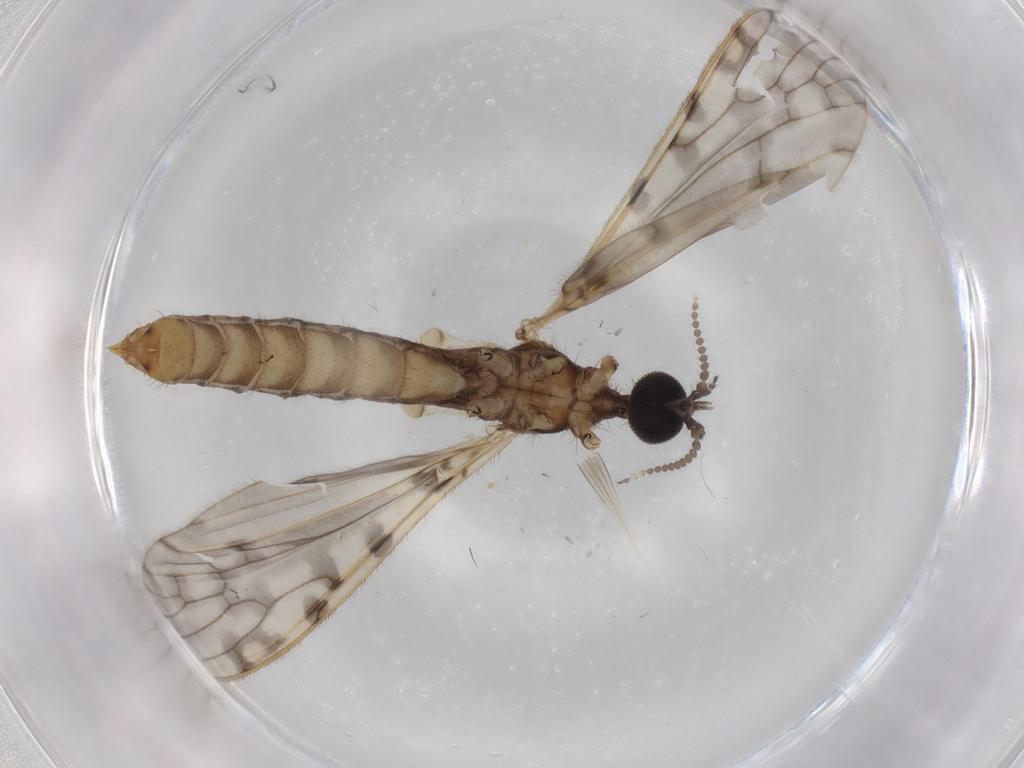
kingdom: Animalia
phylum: Arthropoda
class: Insecta
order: Diptera
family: Limoniidae
